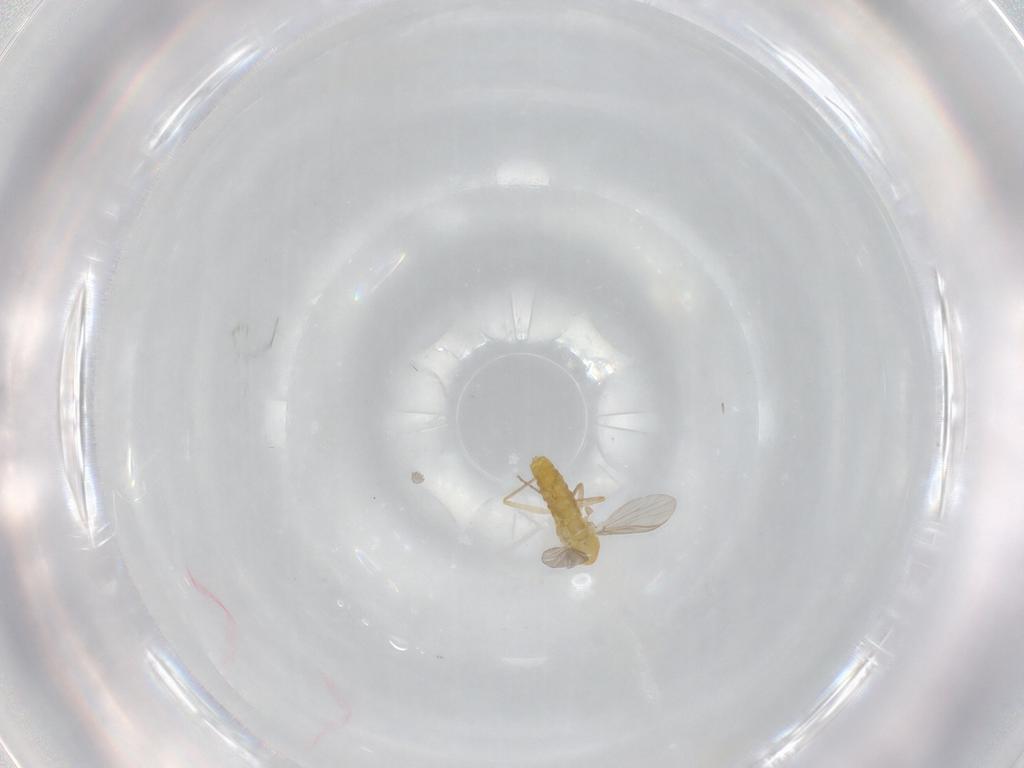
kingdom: Animalia
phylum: Arthropoda
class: Insecta
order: Diptera
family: Chironomidae
